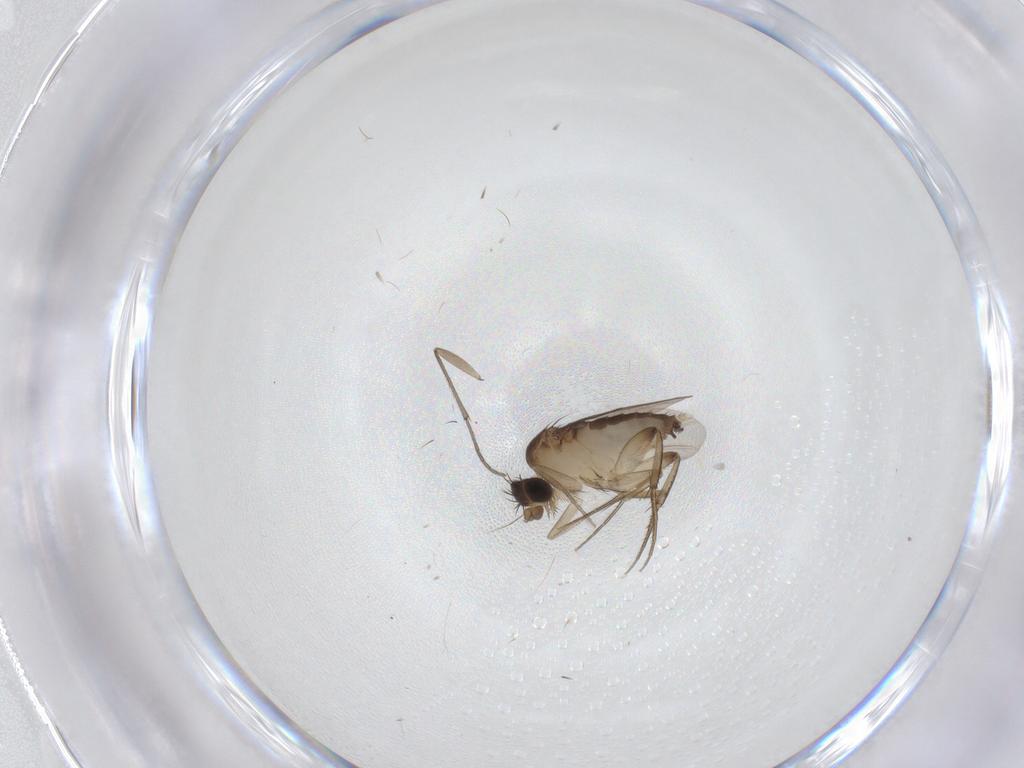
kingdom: Animalia
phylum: Arthropoda
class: Insecta
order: Diptera
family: Phoridae
